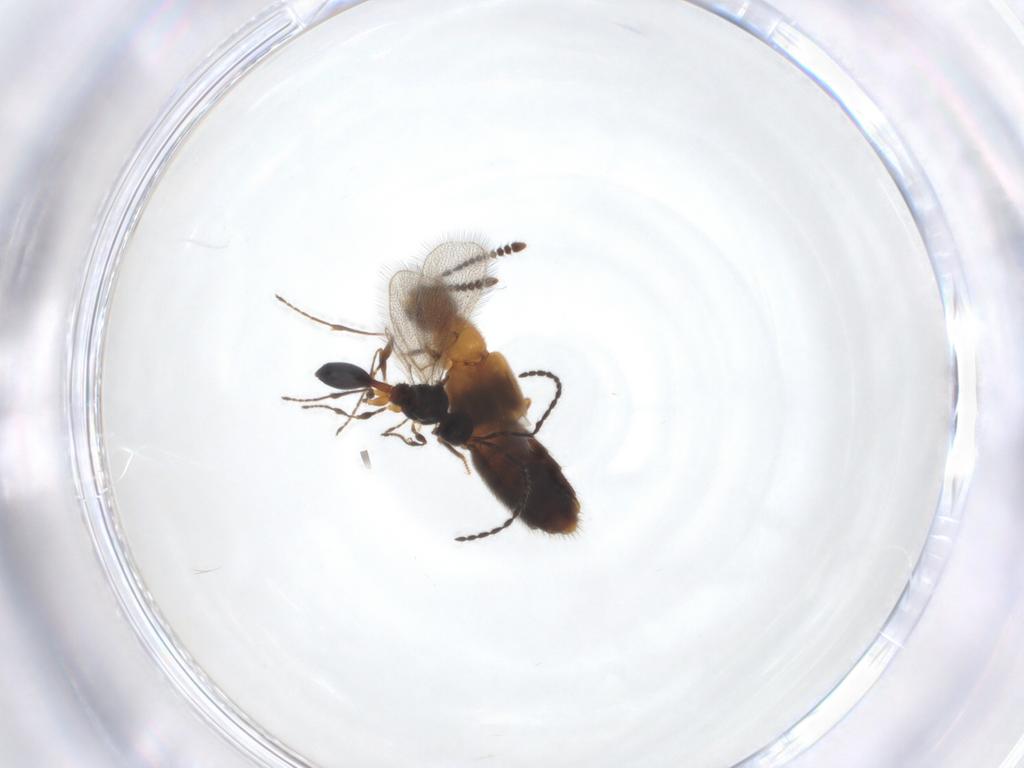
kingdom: Animalia
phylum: Arthropoda
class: Insecta
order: Coleoptera
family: Staphylinidae
